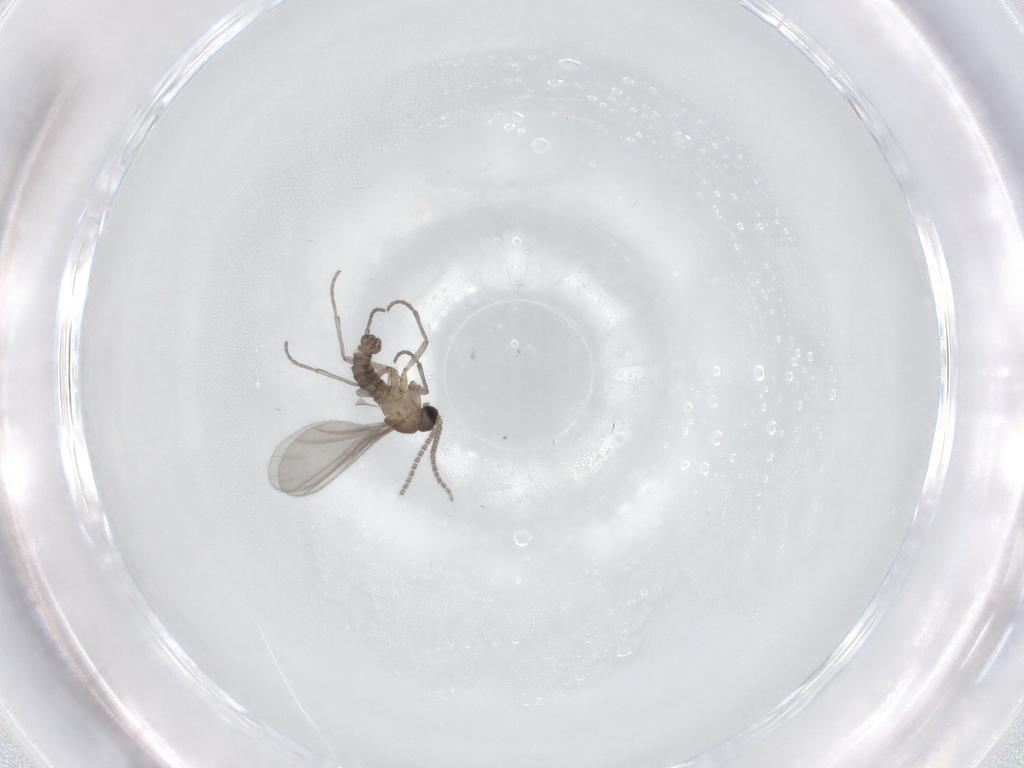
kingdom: Animalia
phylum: Arthropoda
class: Insecta
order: Diptera
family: Sciaridae
